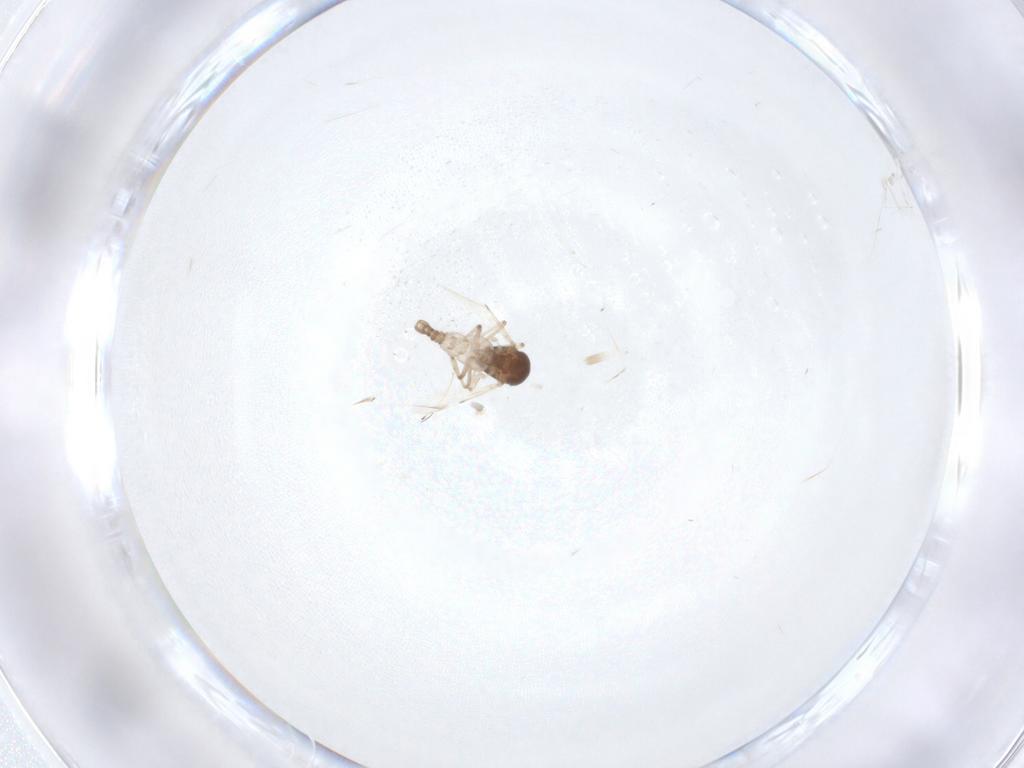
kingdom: Animalia
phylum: Arthropoda
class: Insecta
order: Diptera
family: Ceratopogonidae
